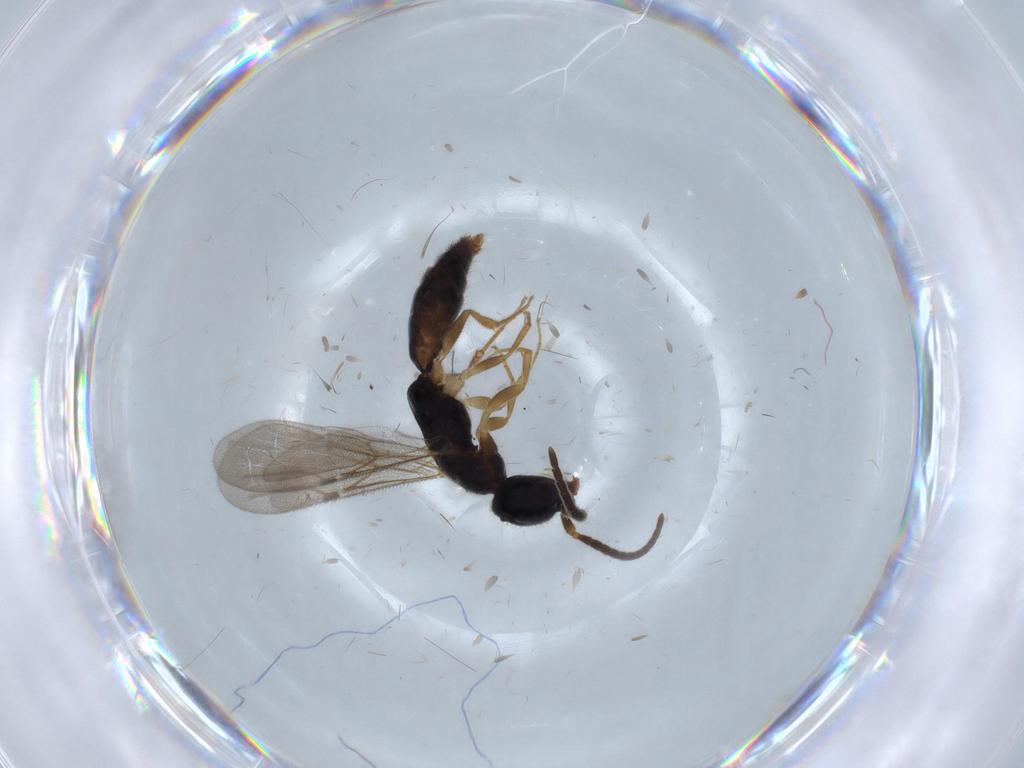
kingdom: Animalia
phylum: Arthropoda
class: Insecta
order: Hymenoptera
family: Bethylidae
